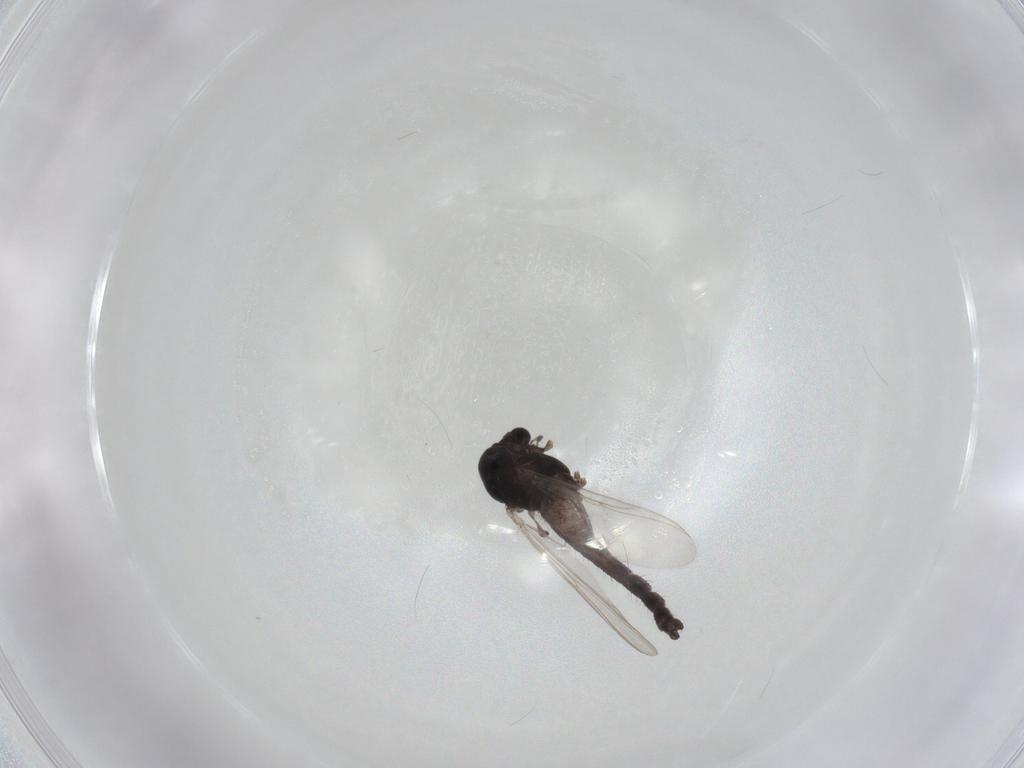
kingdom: Animalia
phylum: Arthropoda
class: Insecta
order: Diptera
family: Chironomidae
